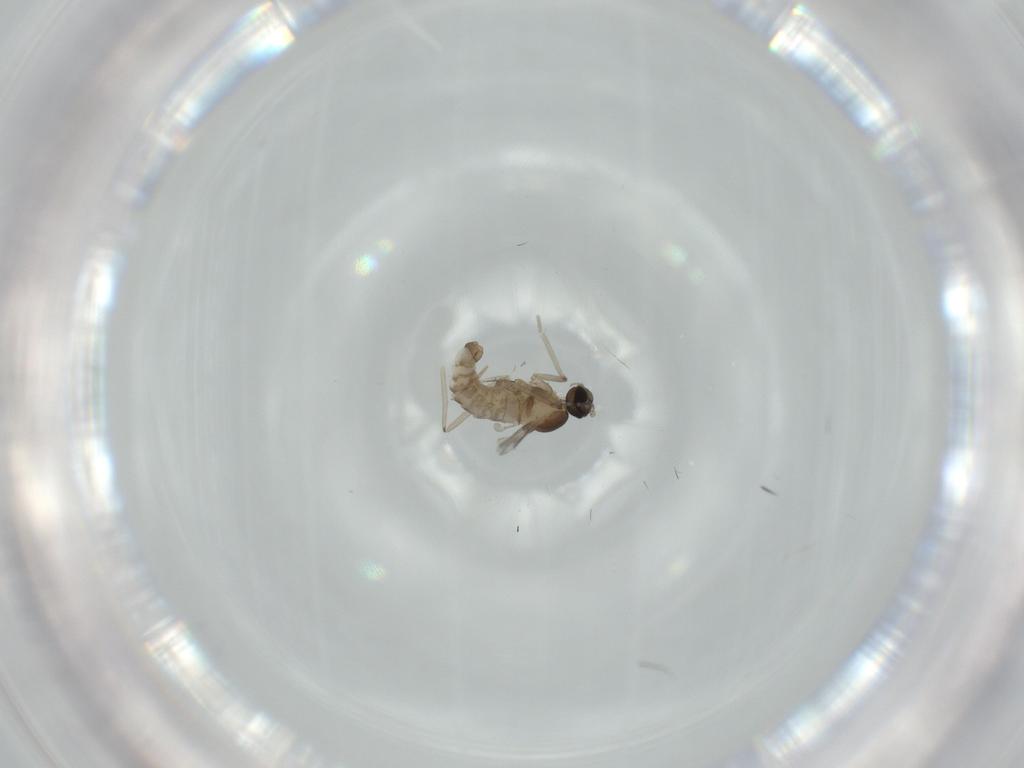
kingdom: Animalia
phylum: Arthropoda
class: Insecta
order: Diptera
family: Cecidomyiidae
